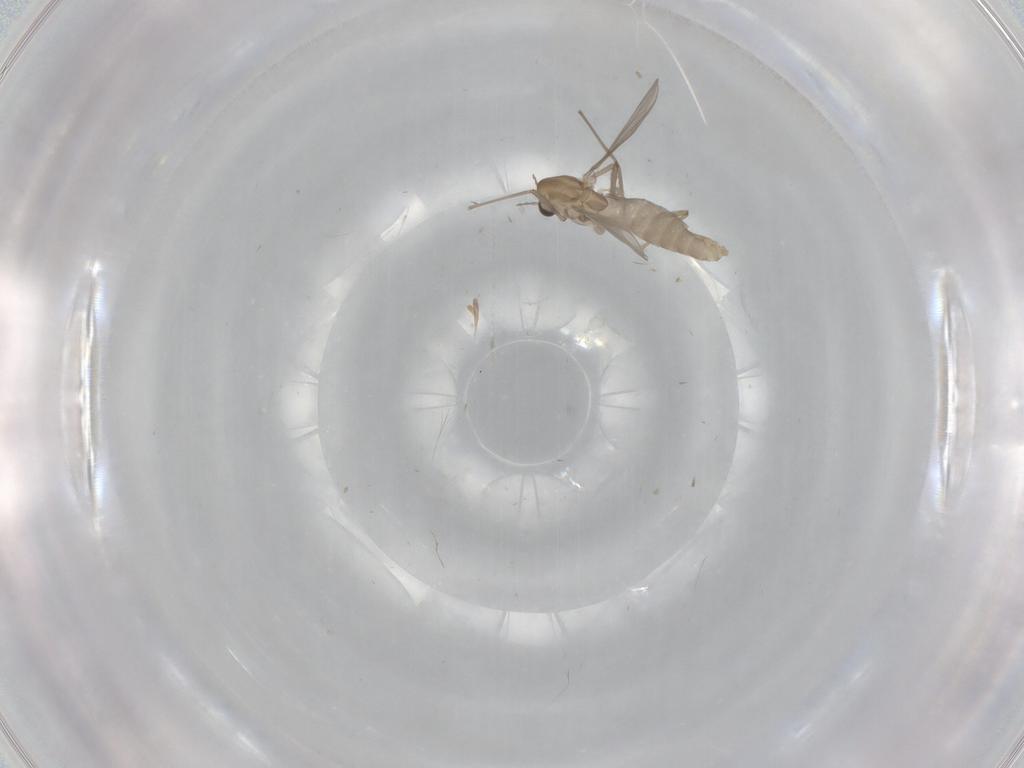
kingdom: Animalia
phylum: Arthropoda
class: Insecta
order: Diptera
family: Chironomidae
